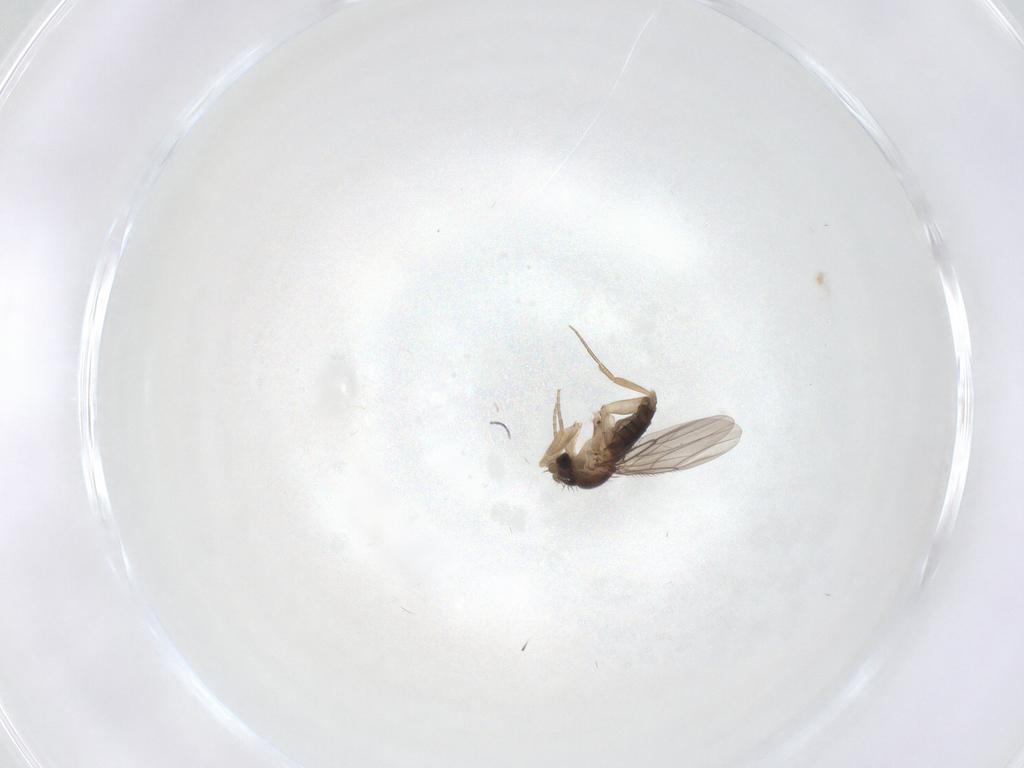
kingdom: Animalia
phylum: Arthropoda
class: Insecta
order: Diptera
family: Phoridae
